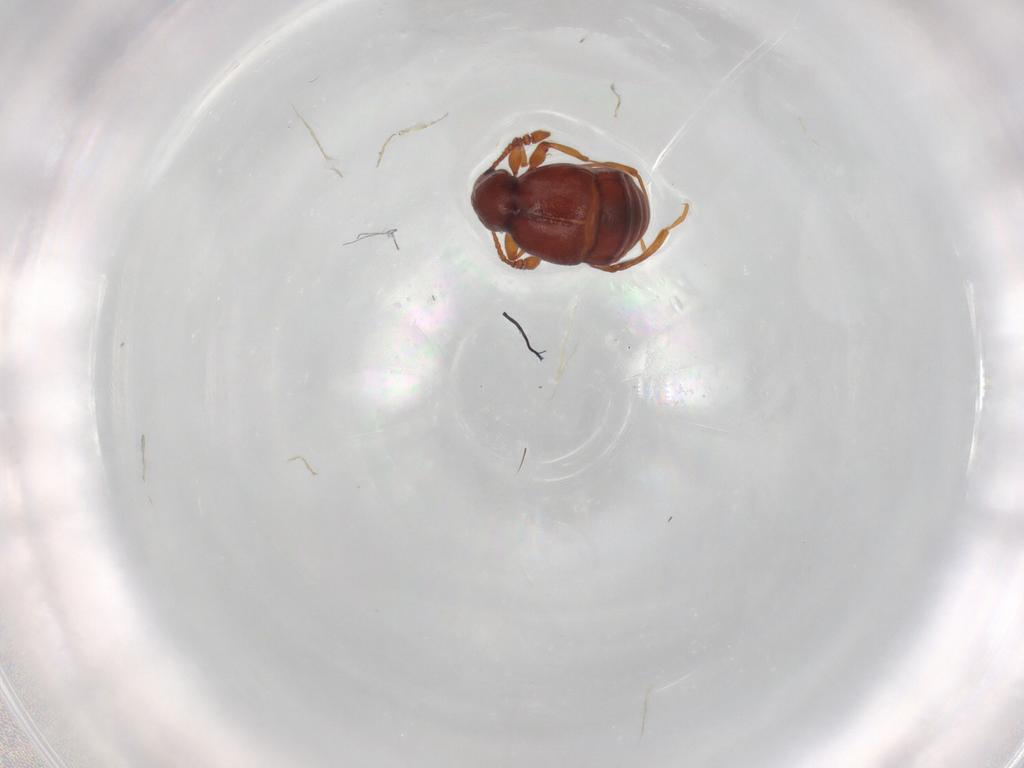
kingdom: Animalia
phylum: Arthropoda
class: Insecta
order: Coleoptera
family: Staphylinidae
